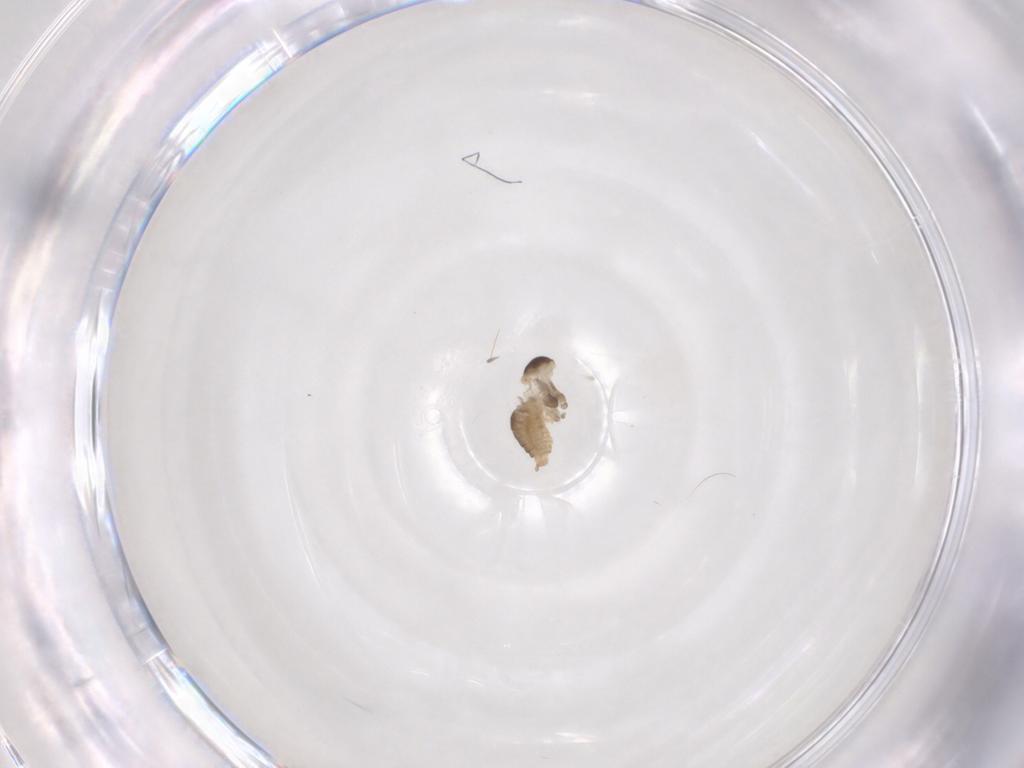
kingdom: Animalia
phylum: Arthropoda
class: Insecta
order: Diptera
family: Cecidomyiidae
